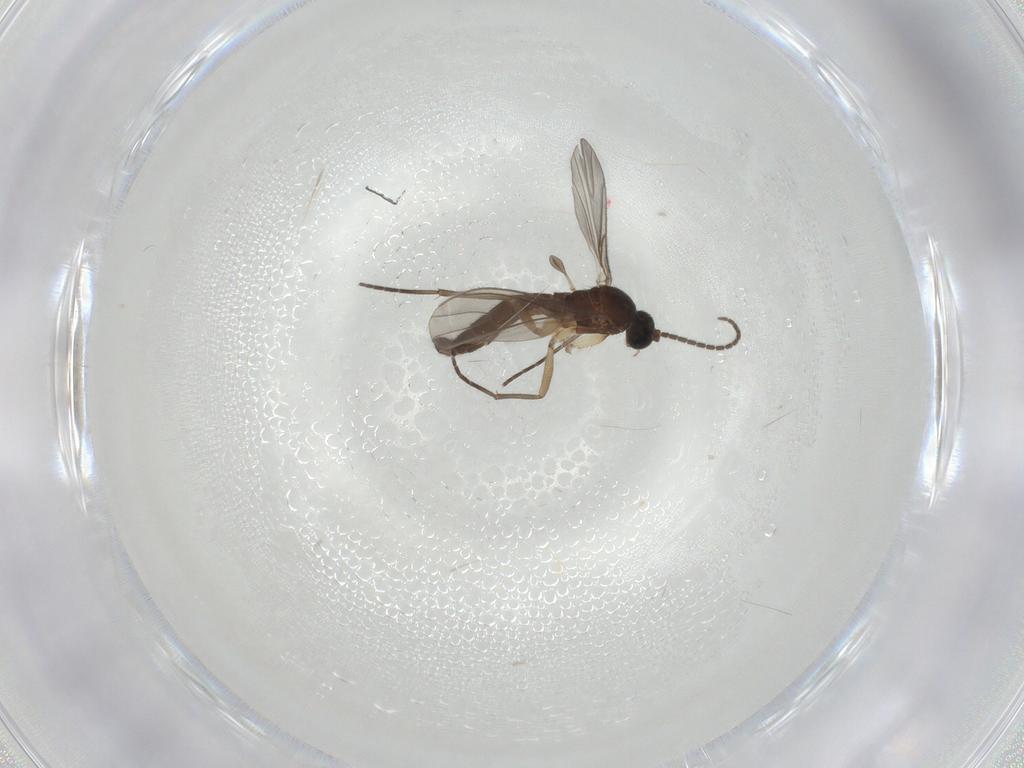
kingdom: Animalia
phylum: Arthropoda
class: Insecta
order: Diptera
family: Sciaridae
